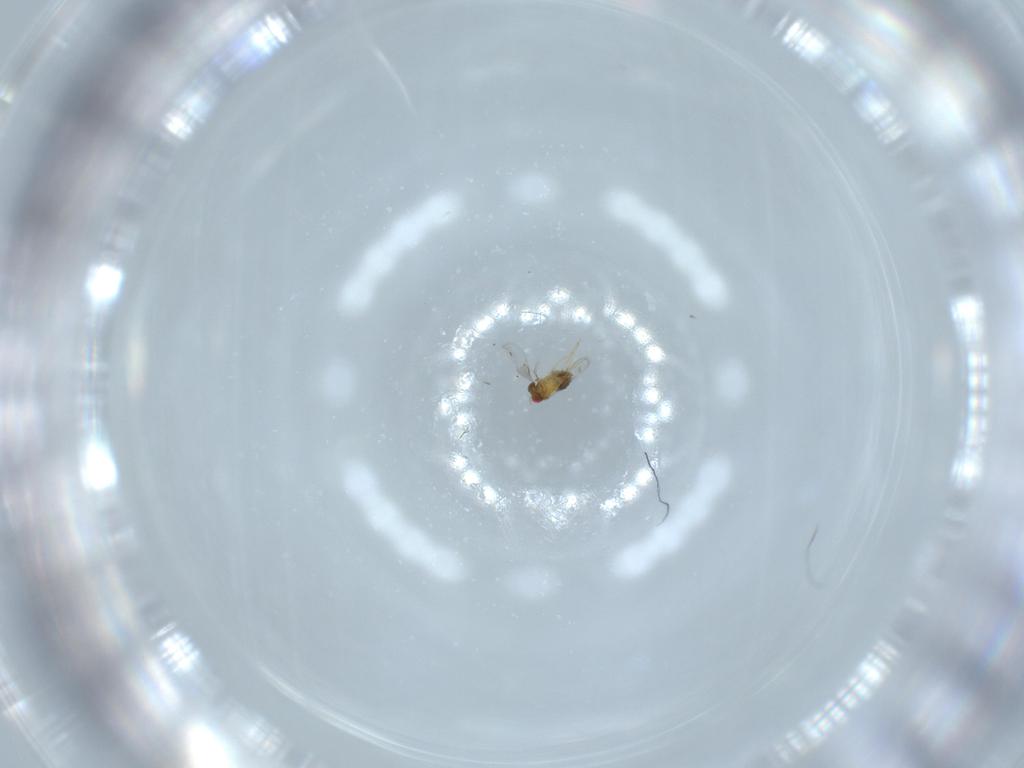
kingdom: Animalia
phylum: Arthropoda
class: Insecta
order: Hymenoptera
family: Trichogrammatidae
